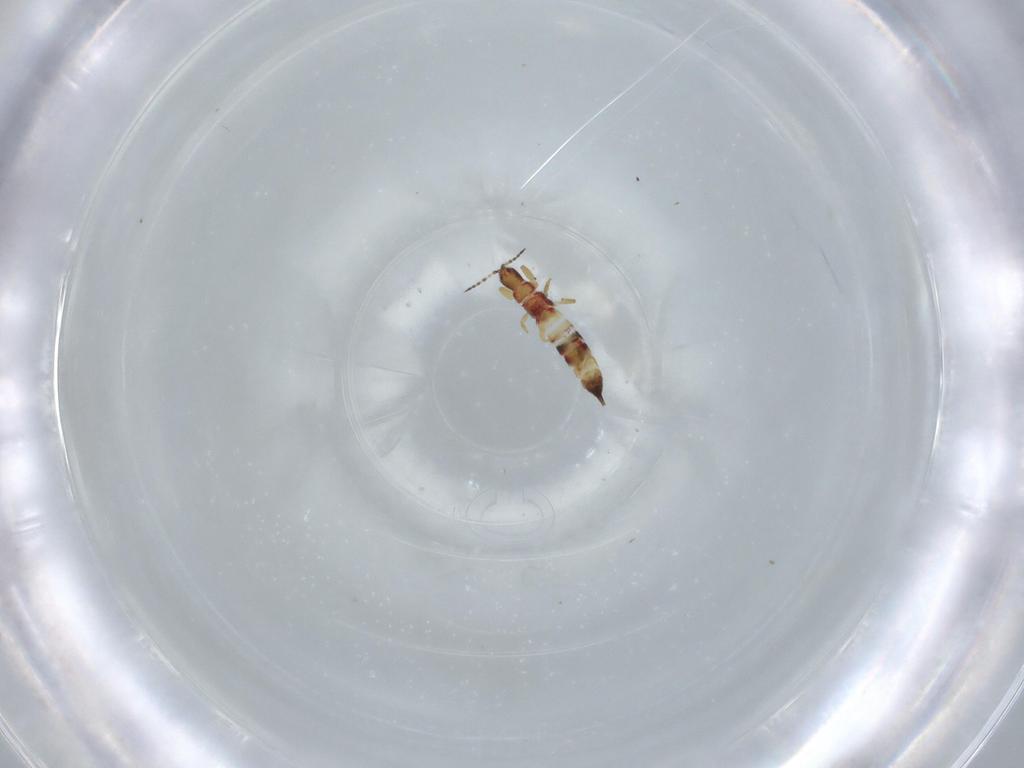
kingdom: Animalia
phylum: Arthropoda
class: Insecta
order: Thysanoptera
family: Phlaeothripidae
